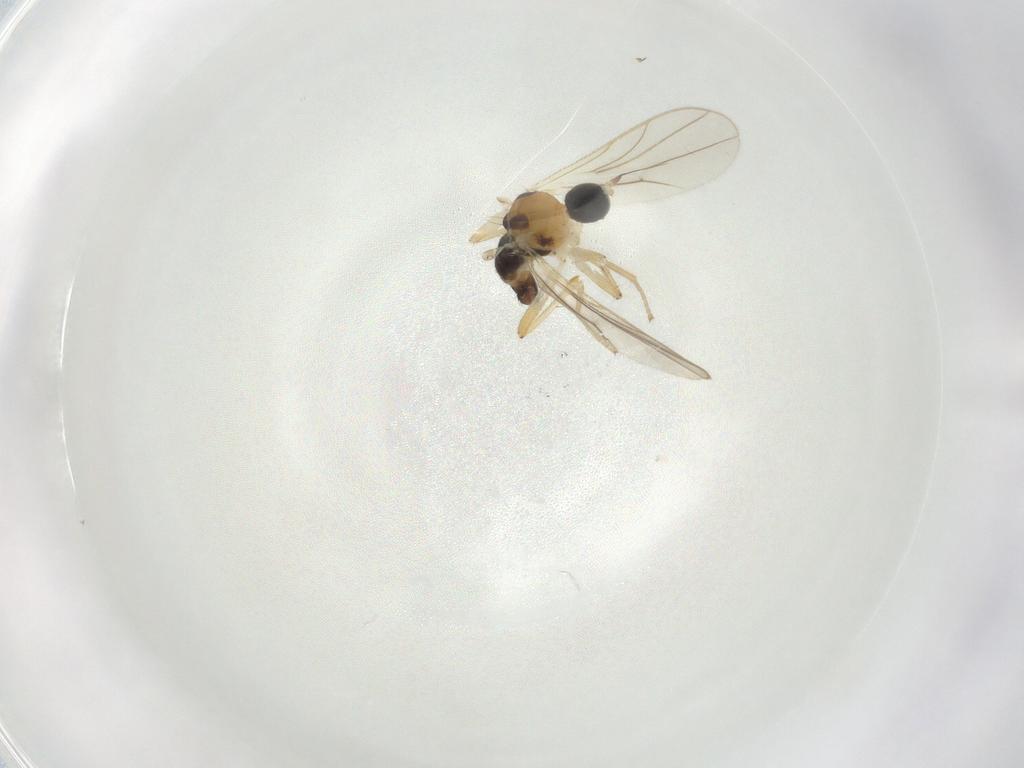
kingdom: Animalia
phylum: Arthropoda
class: Insecta
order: Diptera
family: Hybotidae
